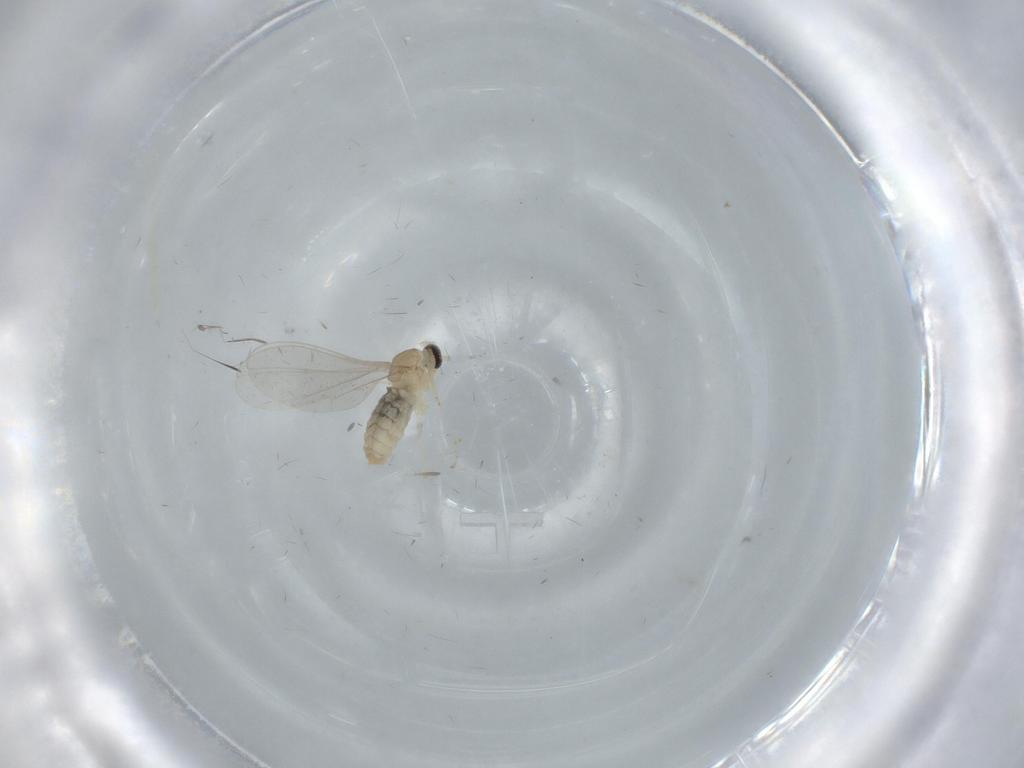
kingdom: Animalia
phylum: Arthropoda
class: Insecta
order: Diptera
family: Cecidomyiidae
